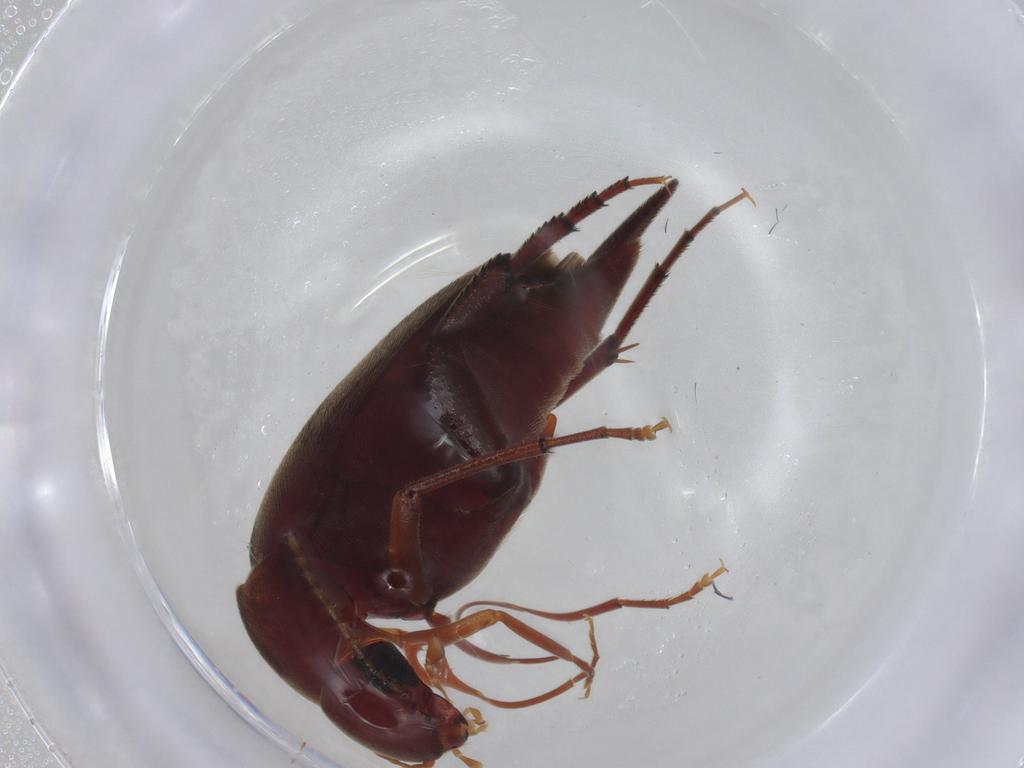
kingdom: Animalia
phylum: Arthropoda
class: Insecta
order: Coleoptera
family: Mordellidae
